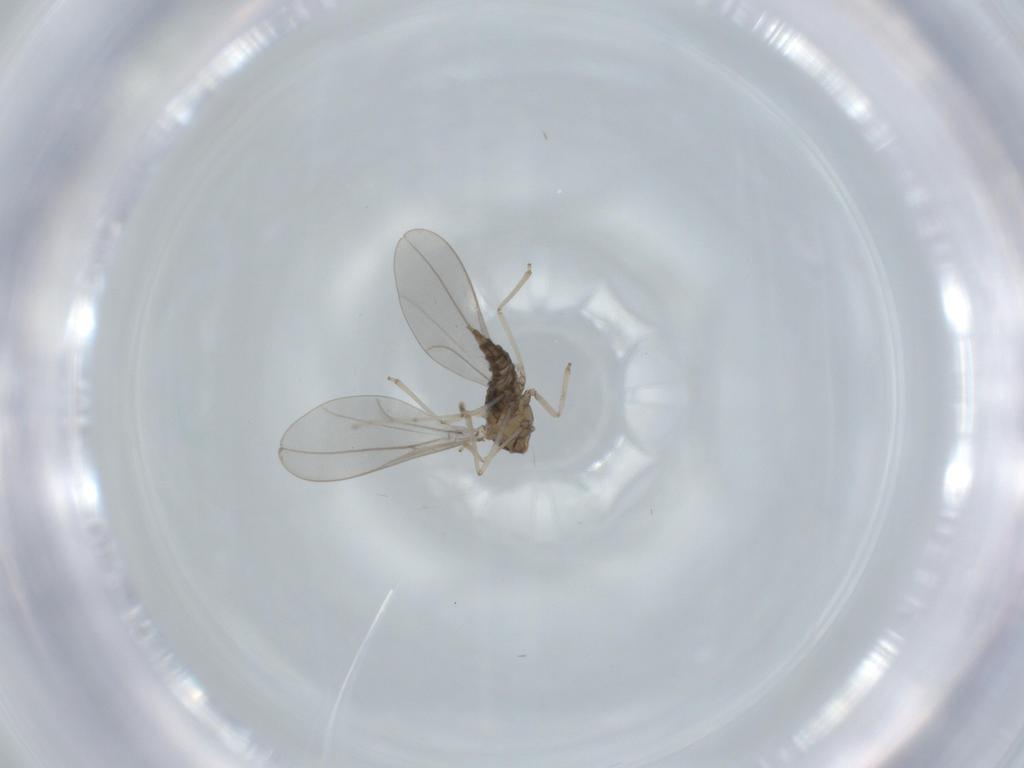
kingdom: Animalia
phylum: Arthropoda
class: Insecta
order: Diptera
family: Cecidomyiidae
